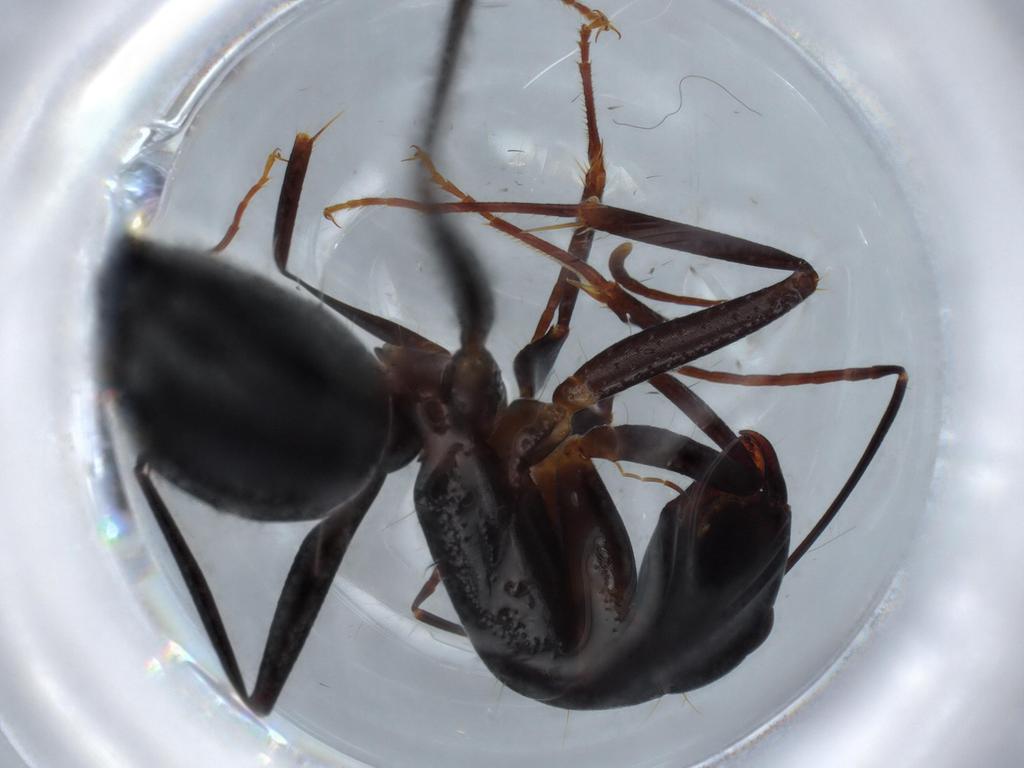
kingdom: Animalia
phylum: Arthropoda
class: Insecta
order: Hymenoptera
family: Formicidae
